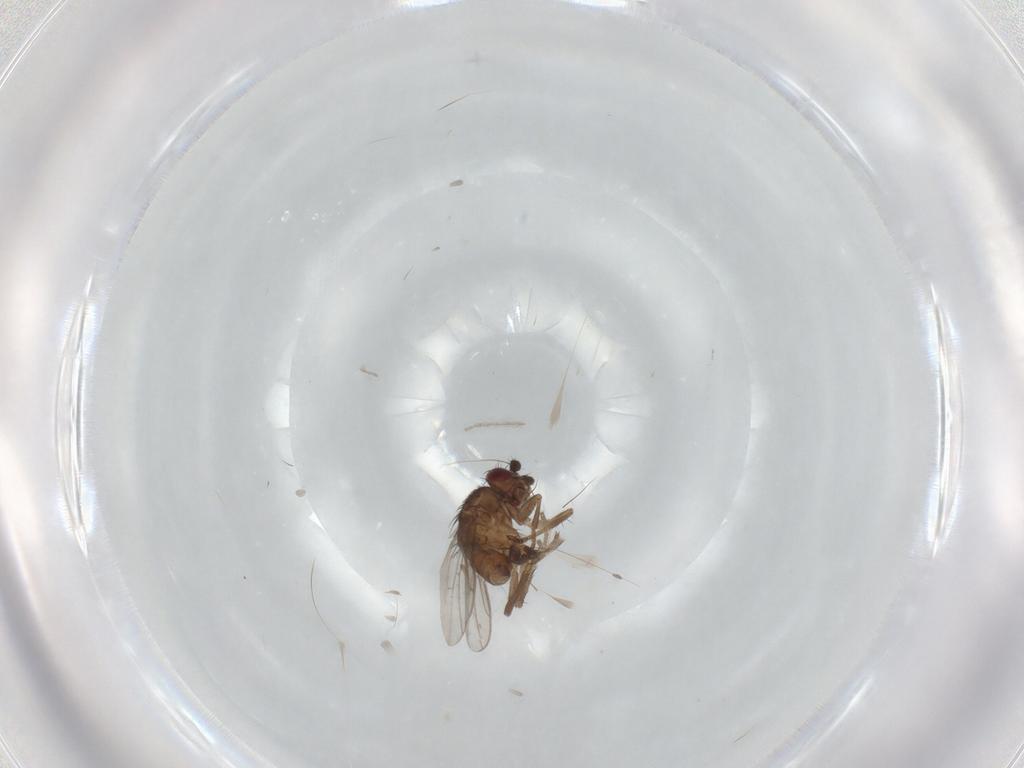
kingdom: Animalia
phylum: Arthropoda
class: Insecta
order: Diptera
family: Sphaeroceridae
